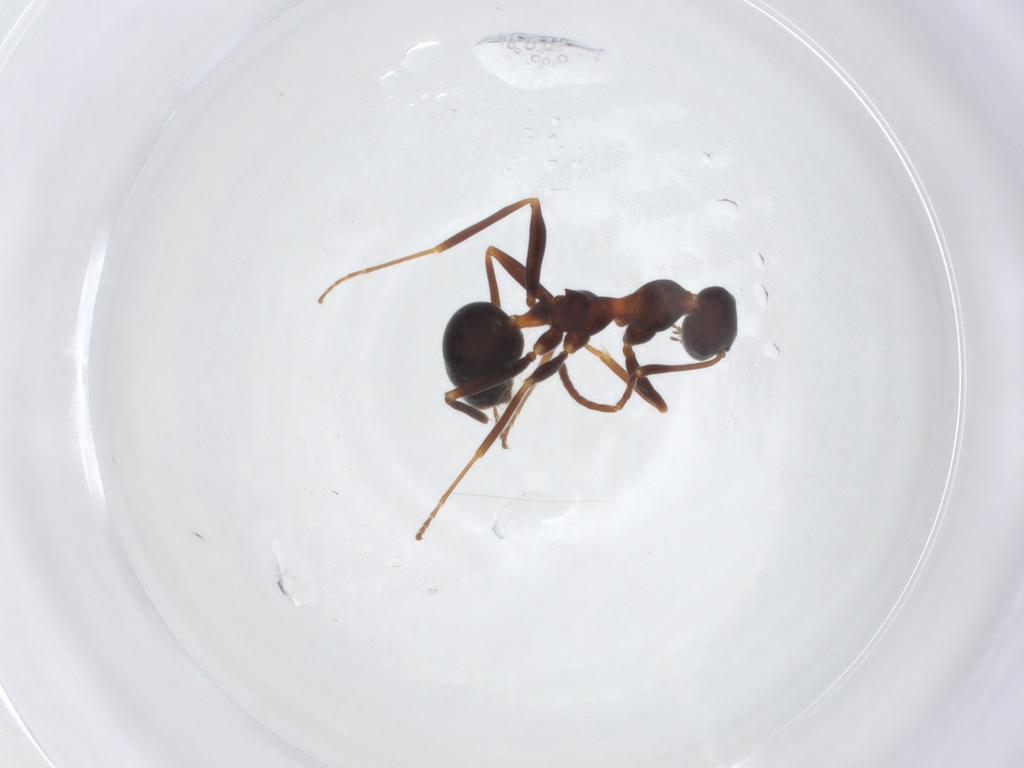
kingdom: Animalia
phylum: Arthropoda
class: Insecta
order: Hymenoptera
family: Formicidae
